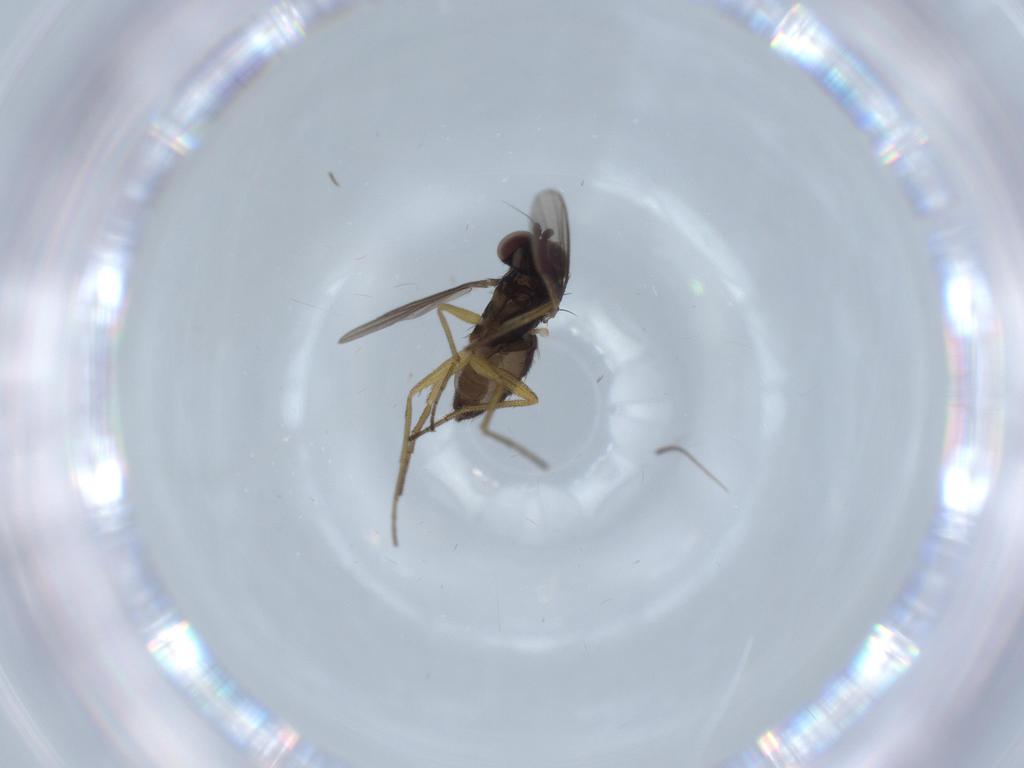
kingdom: Animalia
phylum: Arthropoda
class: Insecta
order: Diptera
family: Dolichopodidae
